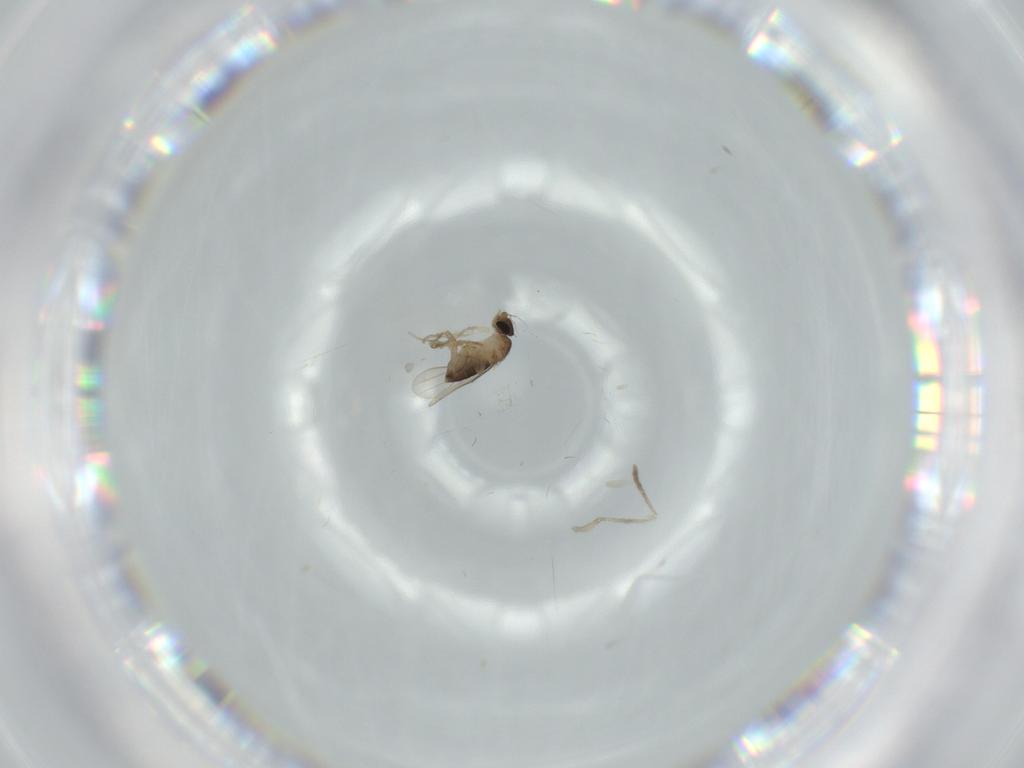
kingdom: Animalia
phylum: Arthropoda
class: Insecta
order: Diptera
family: Phoridae
